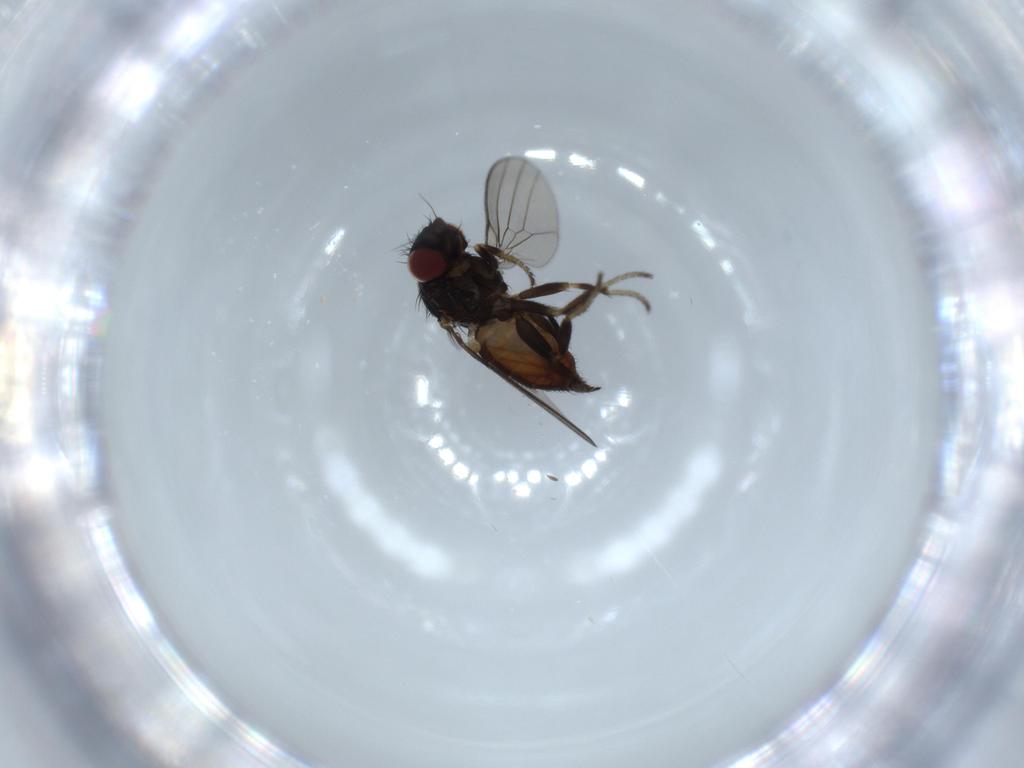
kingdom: Animalia
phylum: Arthropoda
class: Insecta
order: Diptera
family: Milichiidae
